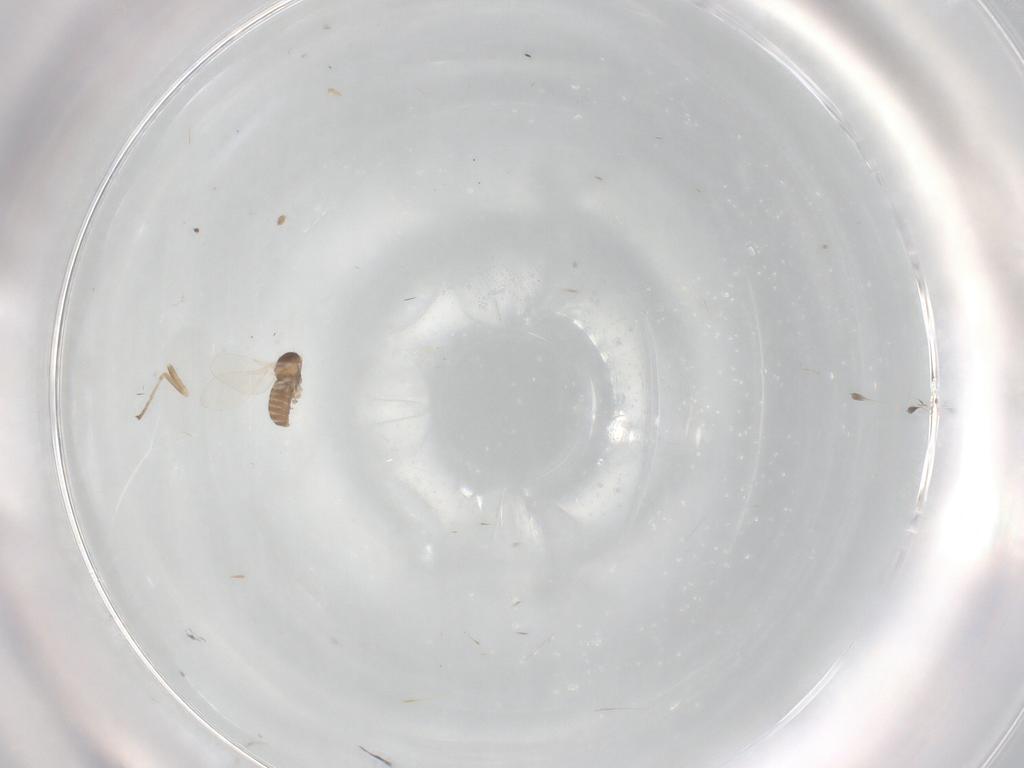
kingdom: Animalia
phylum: Arthropoda
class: Insecta
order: Diptera
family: Cecidomyiidae
